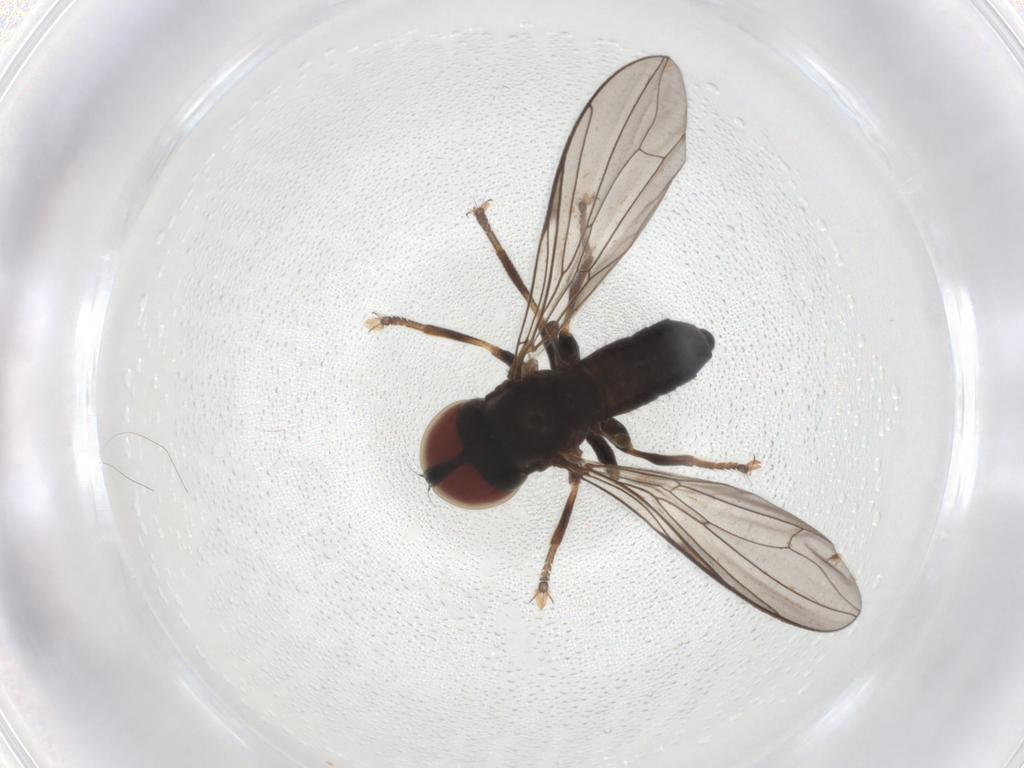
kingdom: Animalia
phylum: Arthropoda
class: Insecta
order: Diptera
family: Pipunculidae
